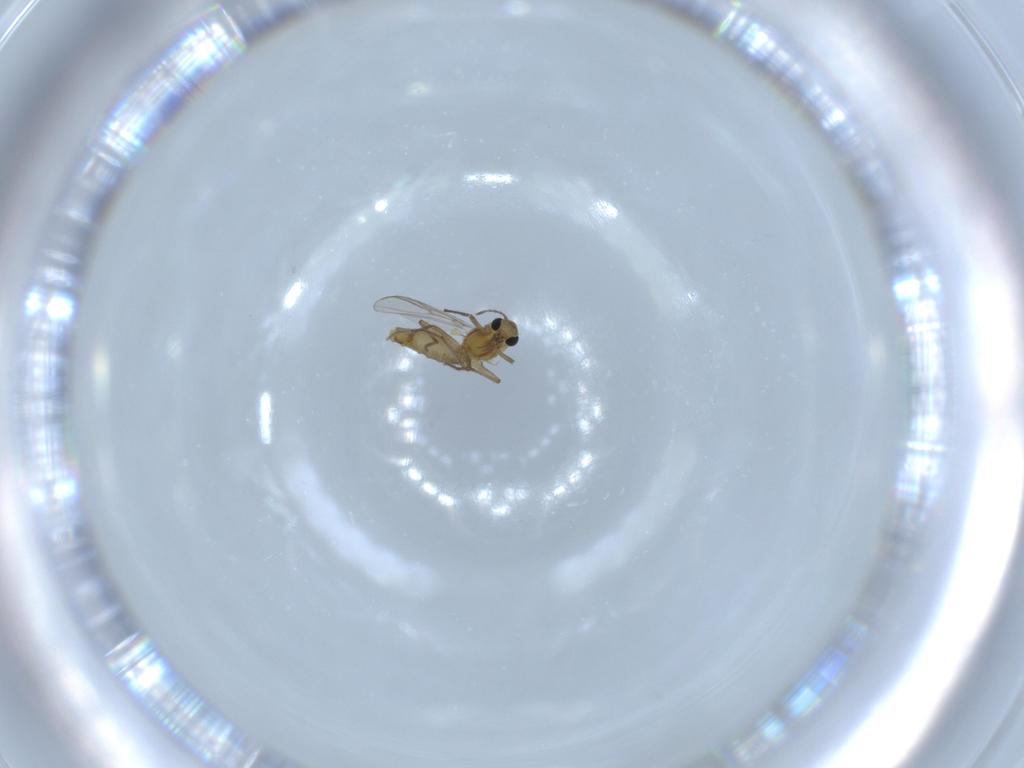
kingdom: Animalia
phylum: Arthropoda
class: Insecta
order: Diptera
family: Chironomidae
